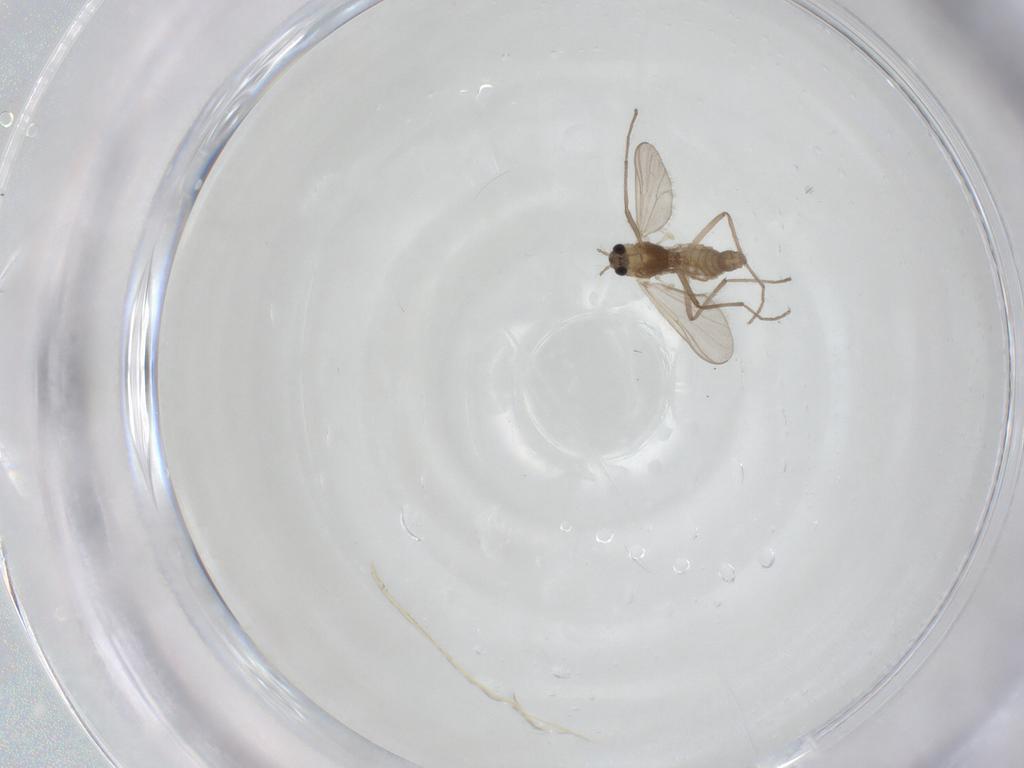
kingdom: Animalia
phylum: Arthropoda
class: Insecta
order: Diptera
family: Chironomidae
